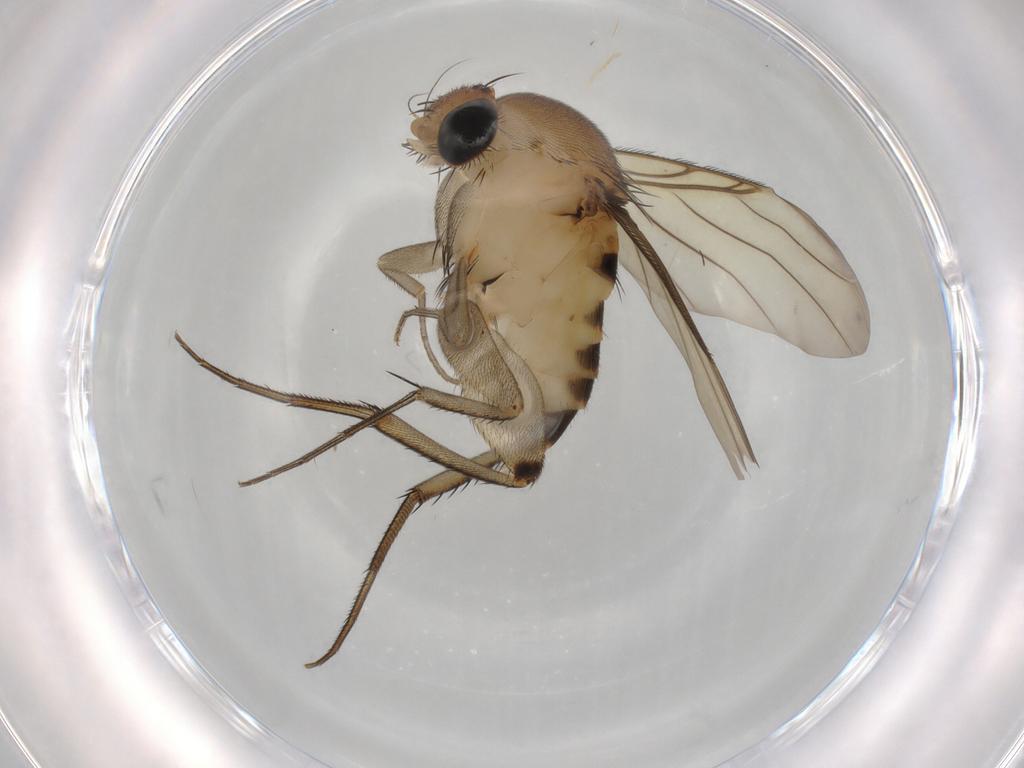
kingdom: Animalia
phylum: Arthropoda
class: Insecta
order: Diptera
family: Phoridae
